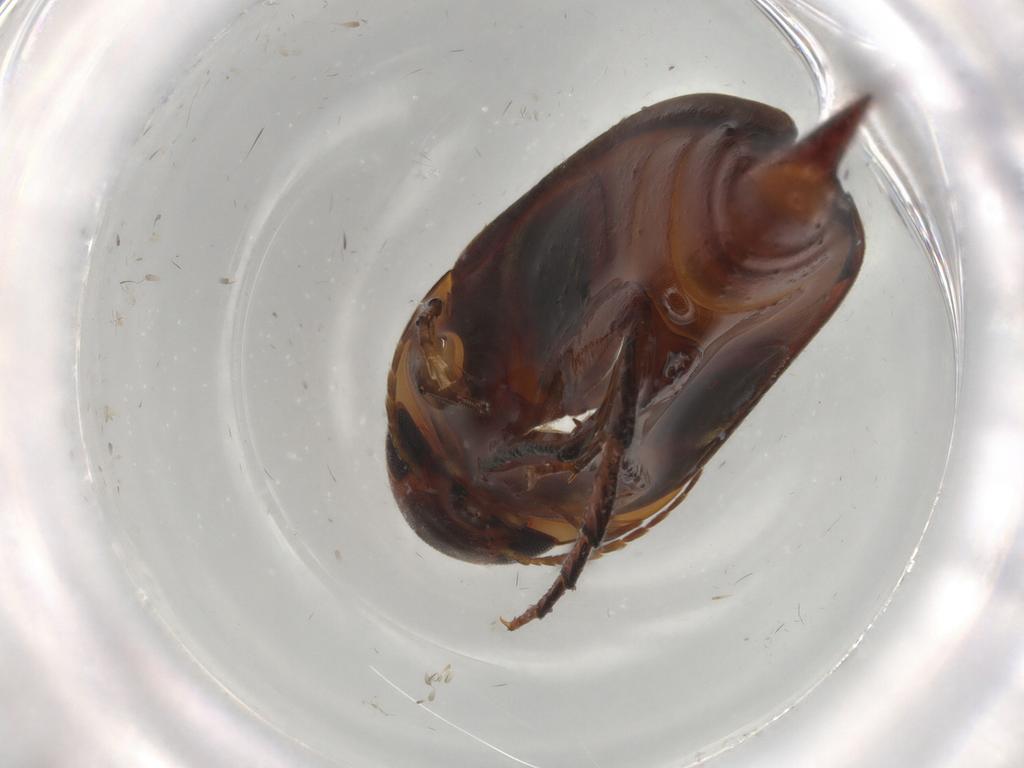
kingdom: Animalia
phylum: Arthropoda
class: Insecta
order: Coleoptera
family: Mordellidae
